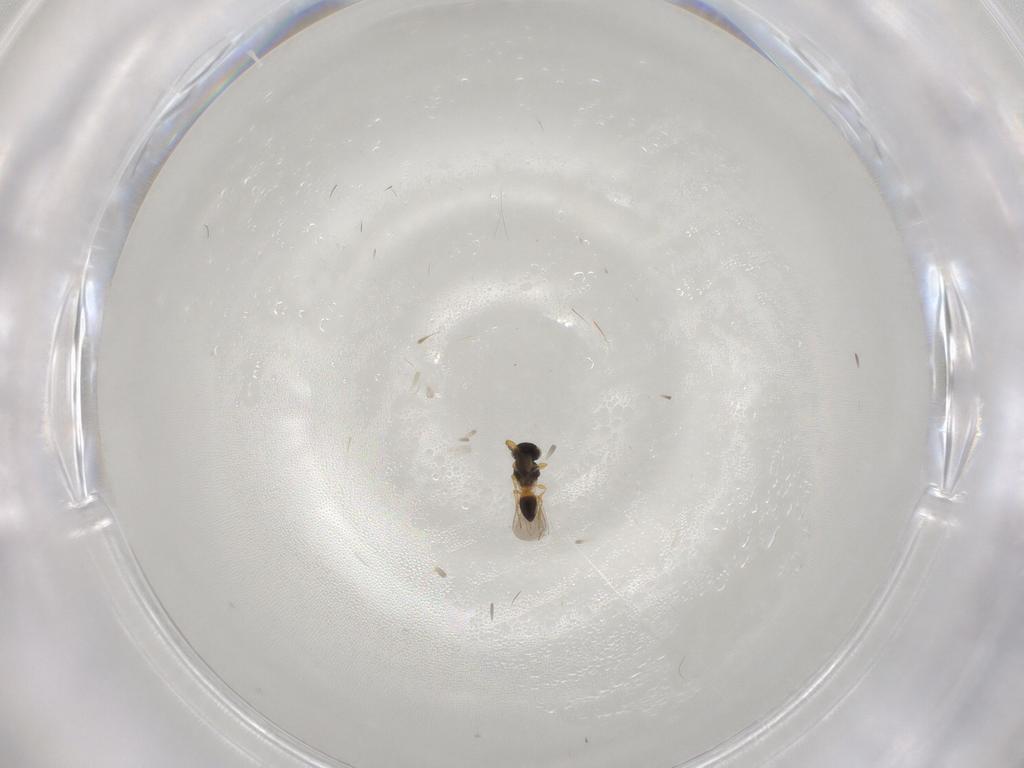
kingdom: Animalia
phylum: Arthropoda
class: Insecta
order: Hymenoptera
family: Platygastridae
